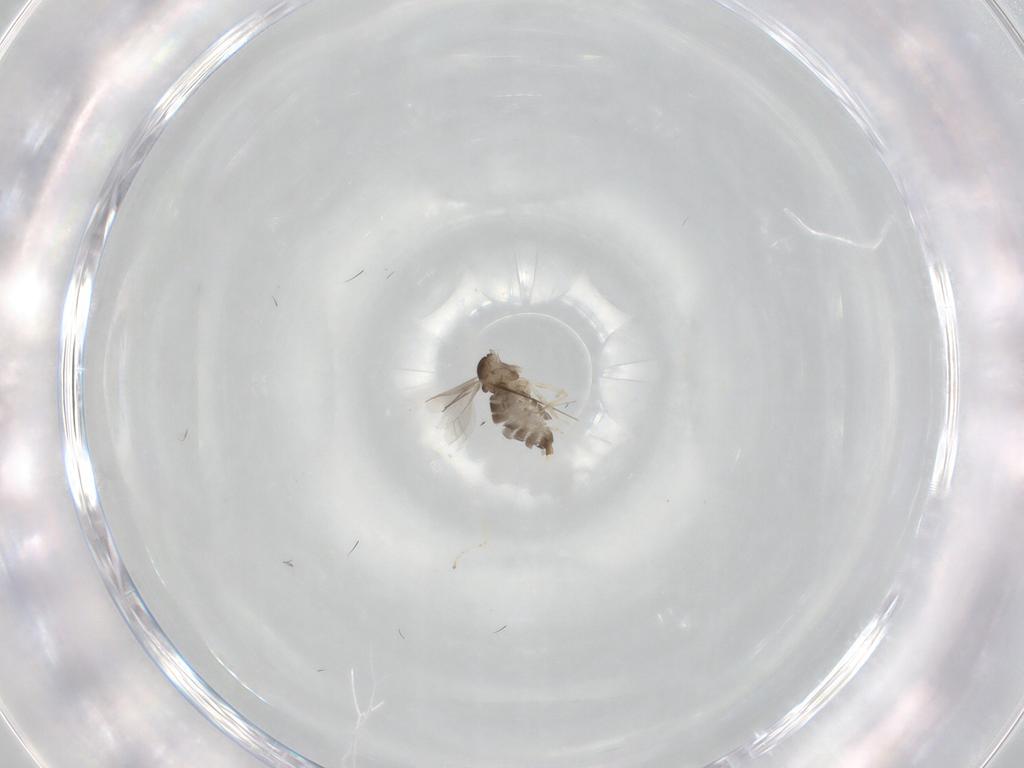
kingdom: Animalia
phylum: Arthropoda
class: Insecta
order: Diptera
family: Cecidomyiidae
